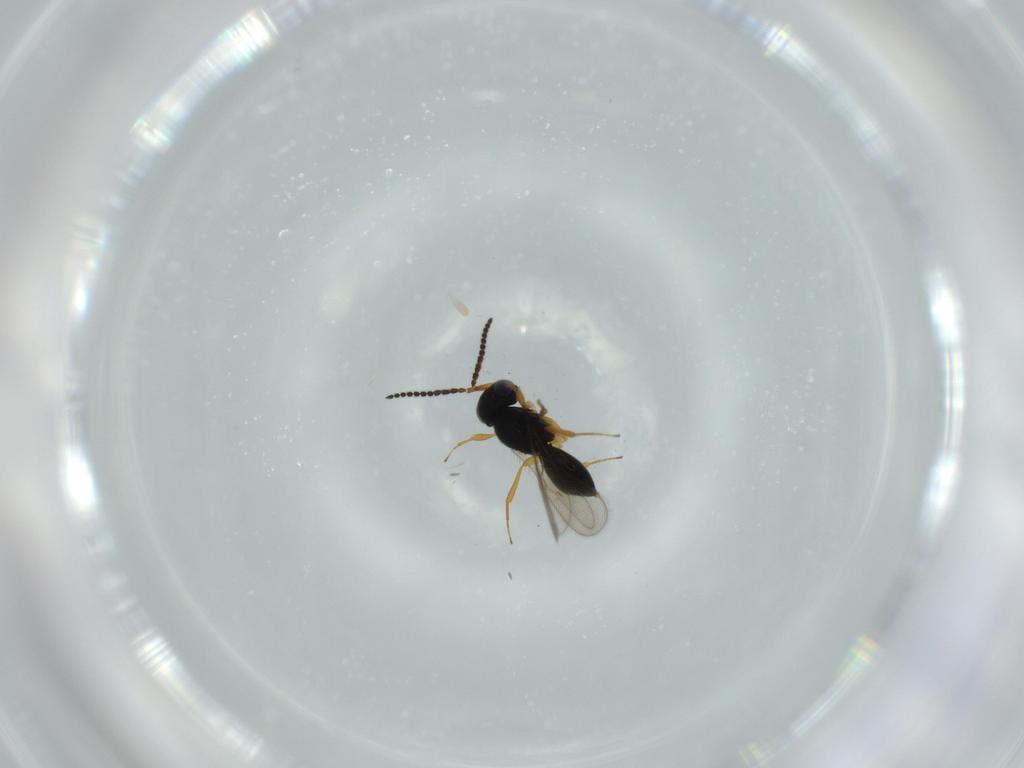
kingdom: Animalia
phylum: Arthropoda
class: Insecta
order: Hymenoptera
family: Scelionidae
